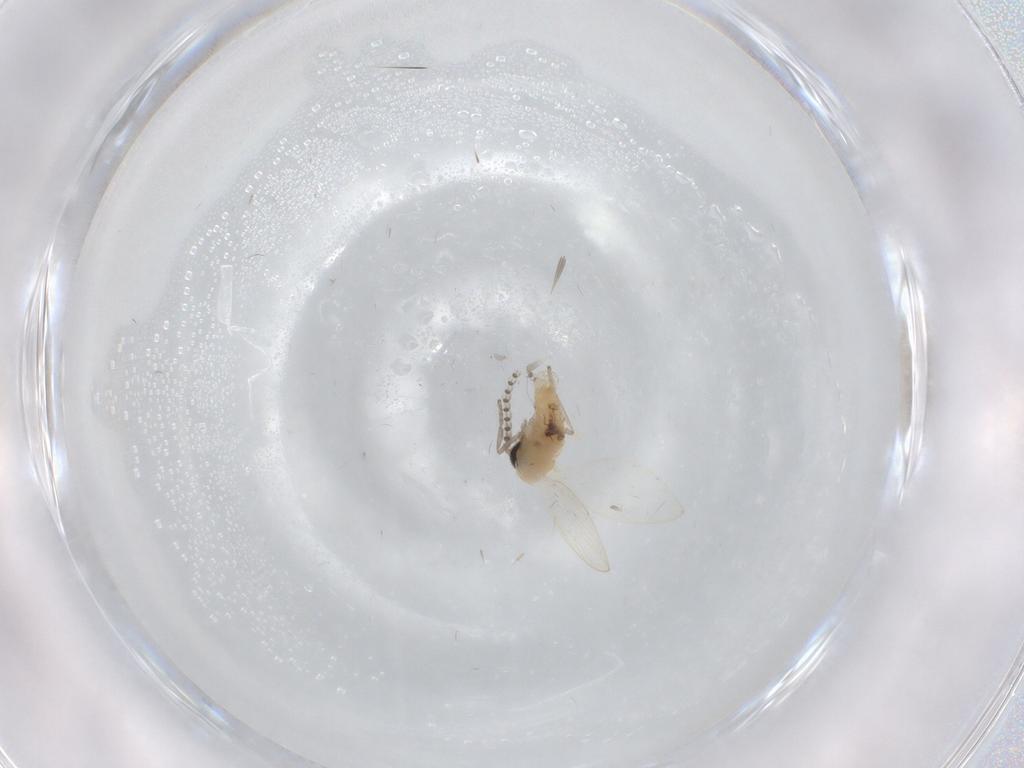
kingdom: Animalia
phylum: Arthropoda
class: Insecta
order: Diptera
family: Psychodidae
